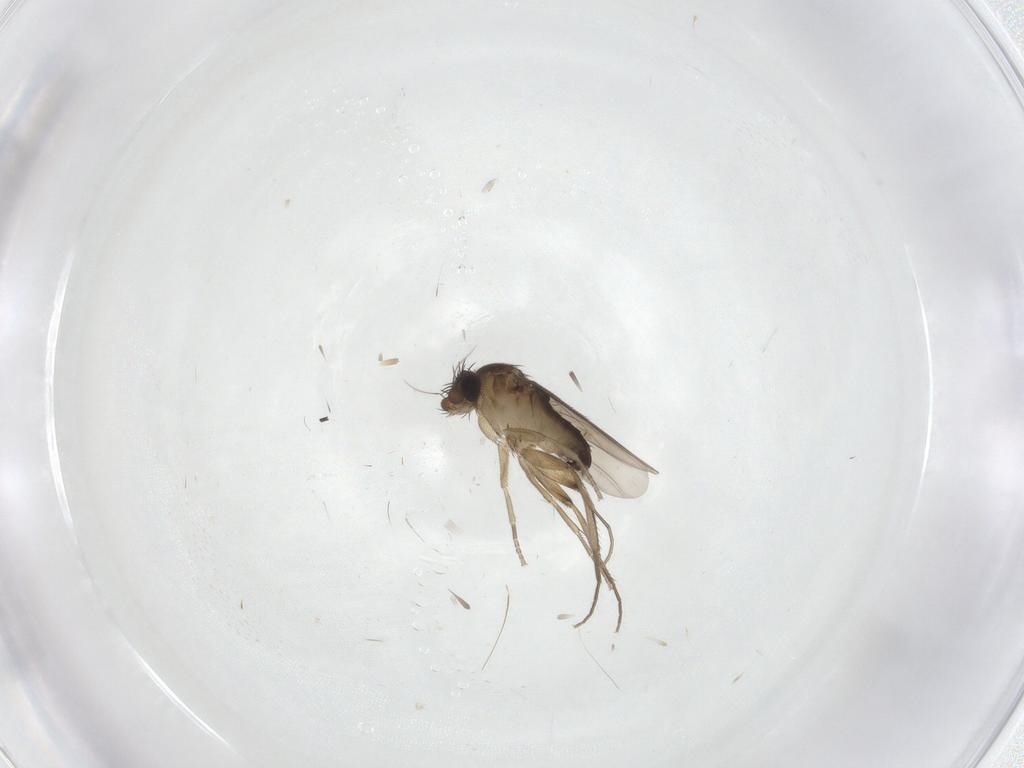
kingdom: Animalia
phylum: Arthropoda
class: Insecta
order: Diptera
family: Phoridae
